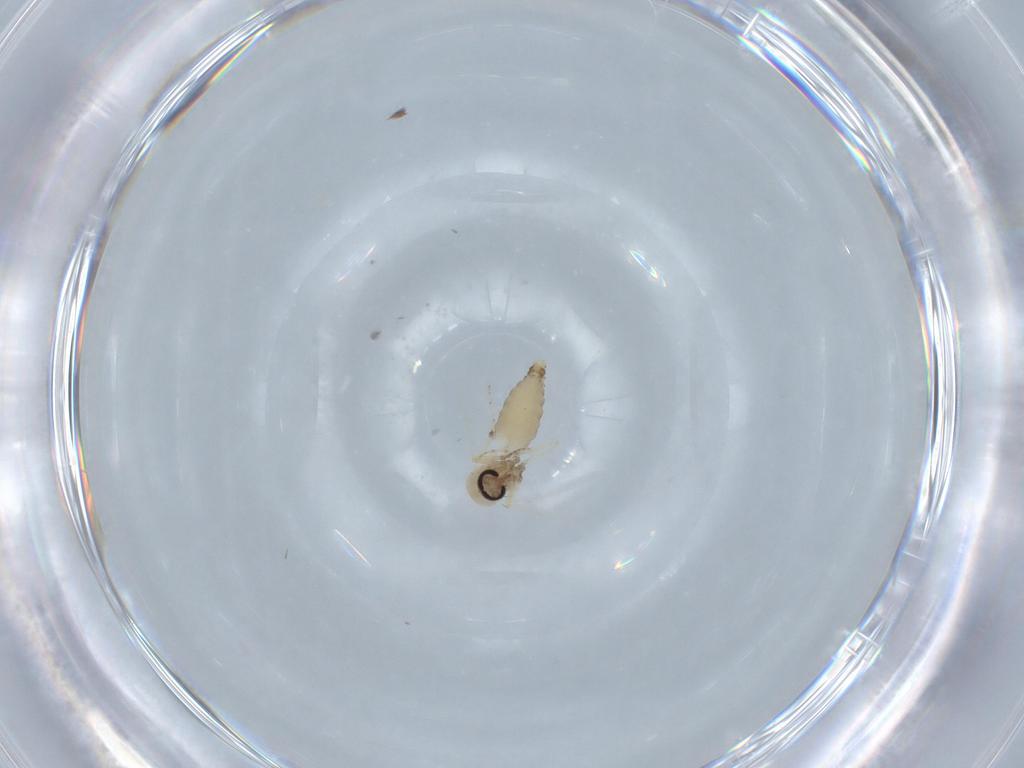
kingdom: Animalia
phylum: Arthropoda
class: Insecta
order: Diptera
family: Ceratopogonidae
